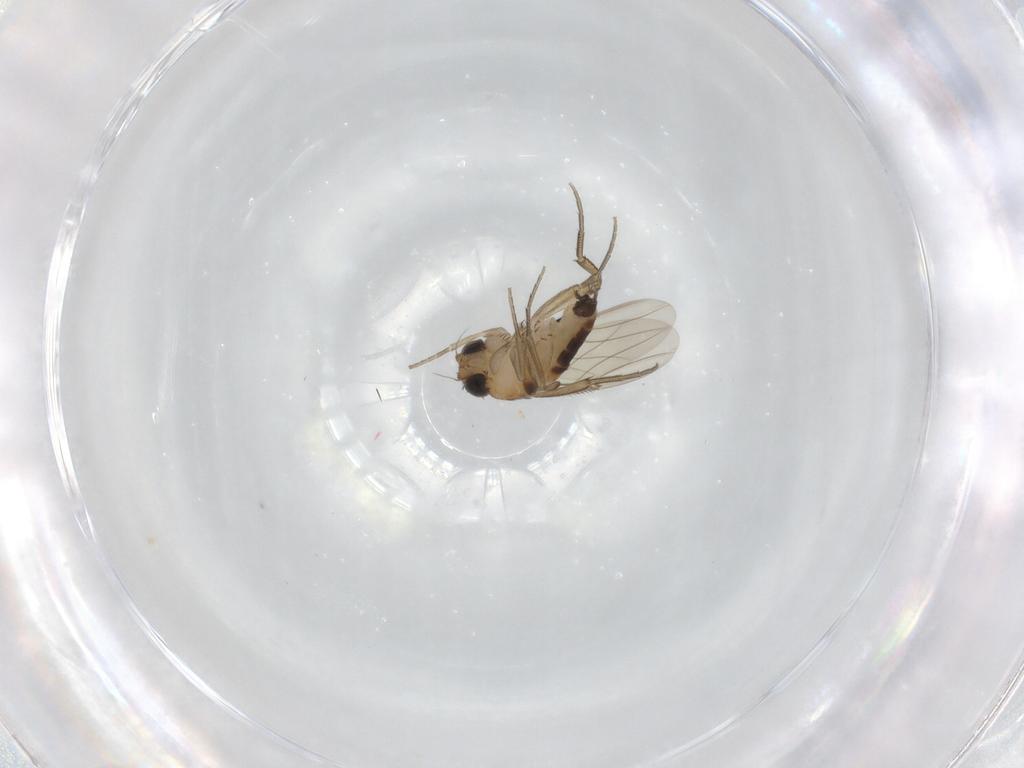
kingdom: Animalia
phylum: Arthropoda
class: Insecta
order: Diptera
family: Phoridae
